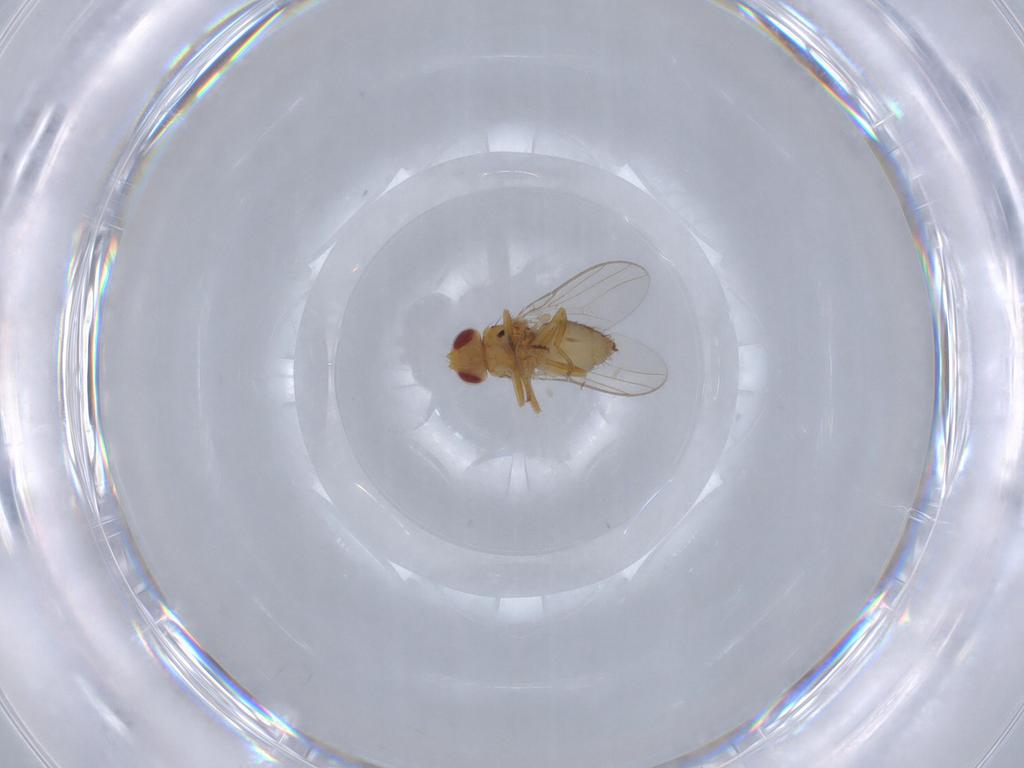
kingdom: Animalia
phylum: Arthropoda
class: Insecta
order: Diptera
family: Chloropidae
